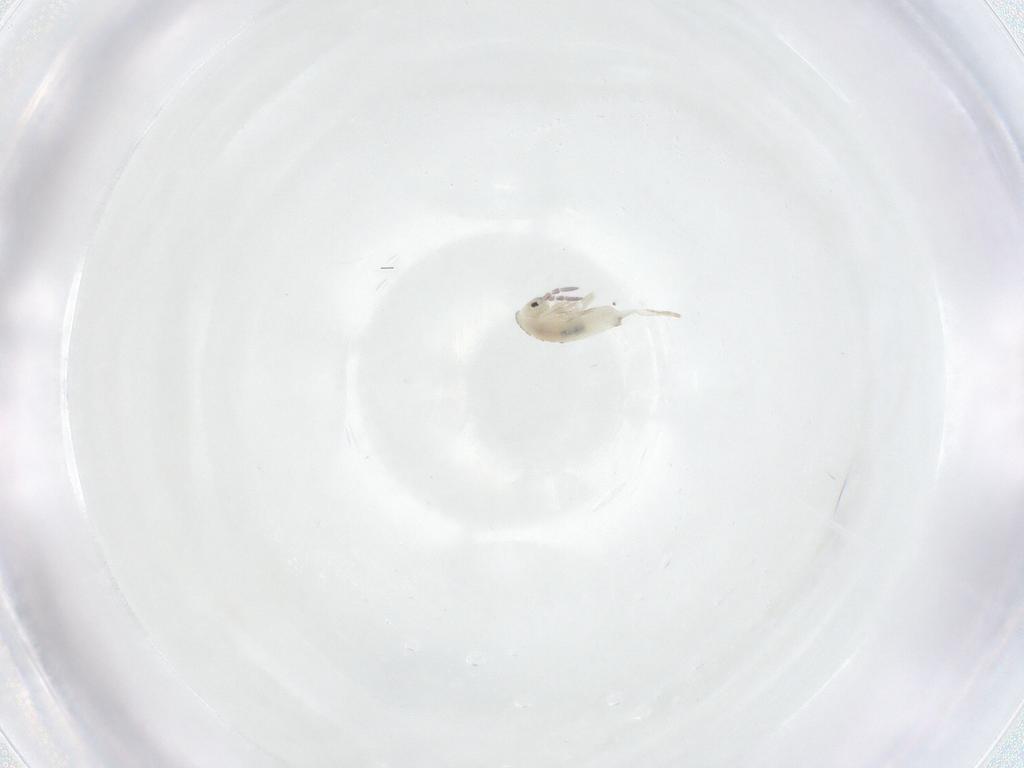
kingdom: Animalia
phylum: Arthropoda
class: Collembola
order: Entomobryomorpha
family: Entomobryidae
